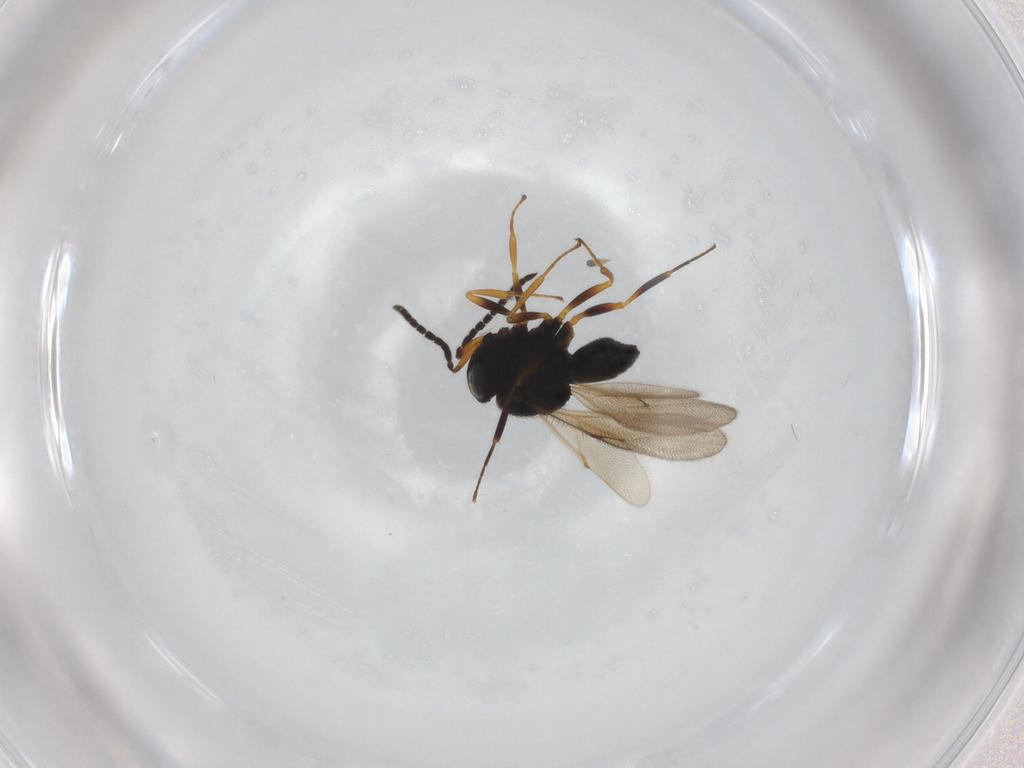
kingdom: Animalia
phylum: Arthropoda
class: Insecta
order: Hymenoptera
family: Scelionidae
